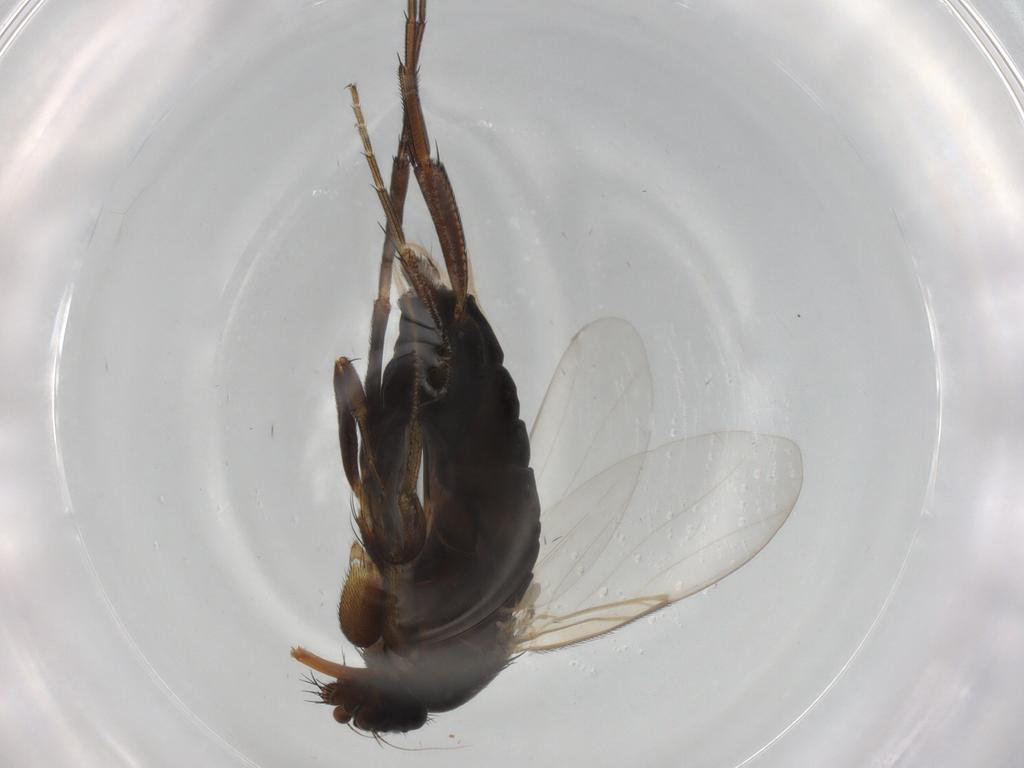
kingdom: Animalia
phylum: Arthropoda
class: Insecta
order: Diptera
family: Phoridae
